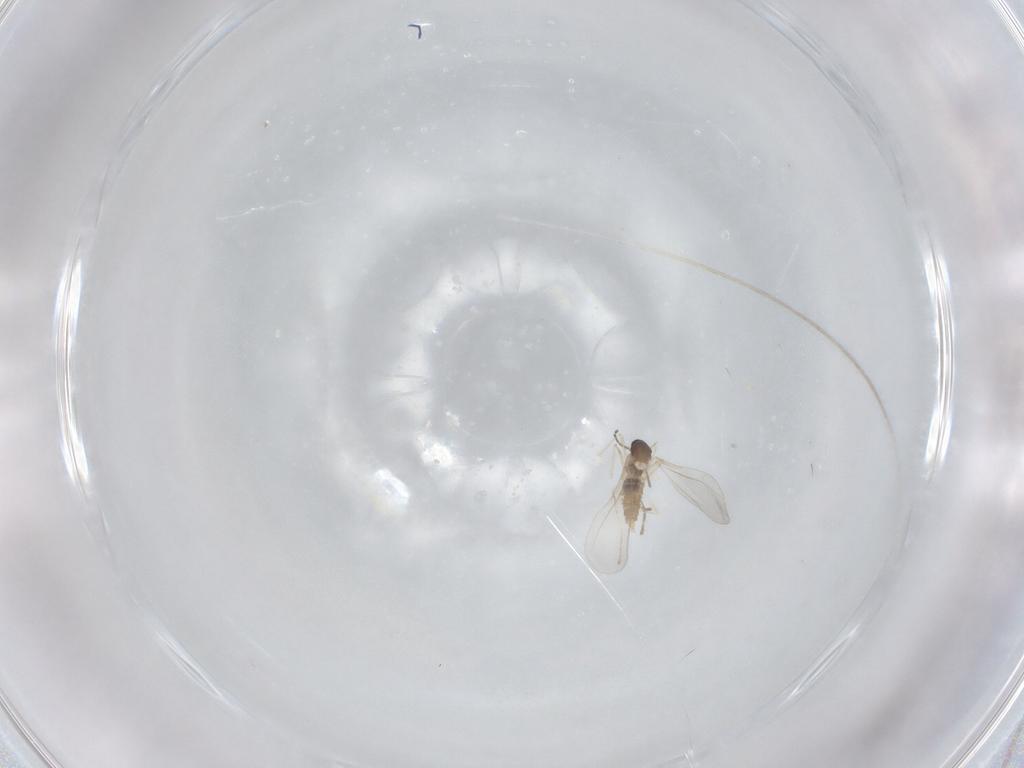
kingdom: Animalia
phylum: Arthropoda
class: Insecta
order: Diptera
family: Cecidomyiidae
